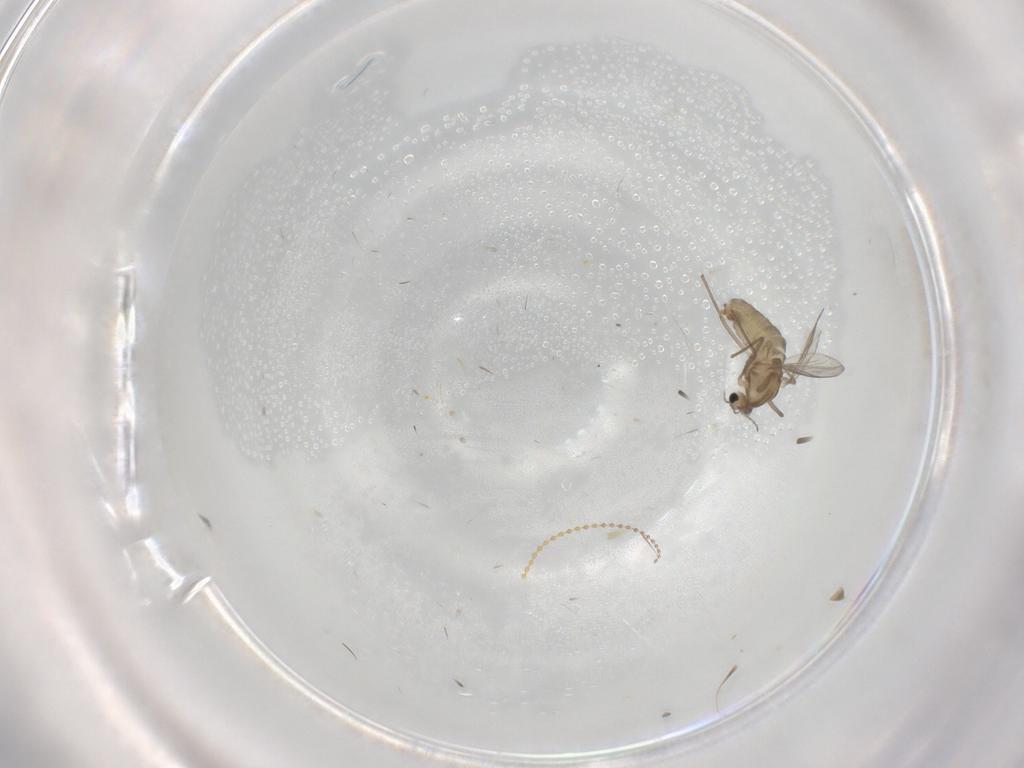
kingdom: Animalia
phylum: Arthropoda
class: Insecta
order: Diptera
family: Chironomidae
